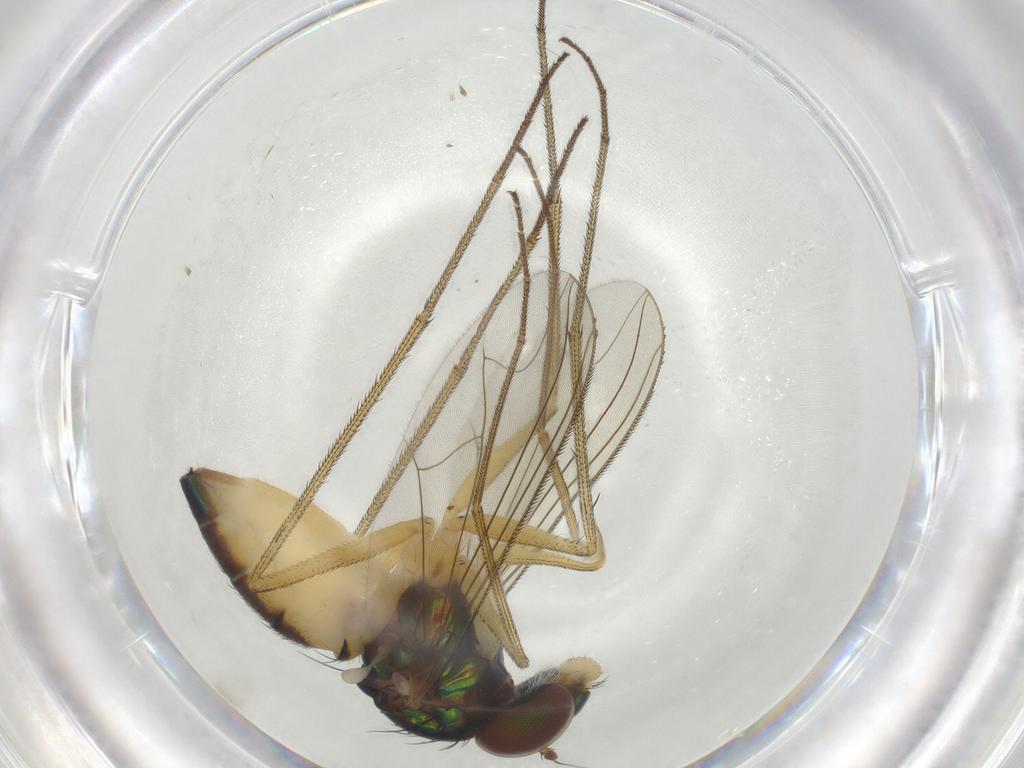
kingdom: Animalia
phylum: Arthropoda
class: Insecta
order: Diptera
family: Dolichopodidae
